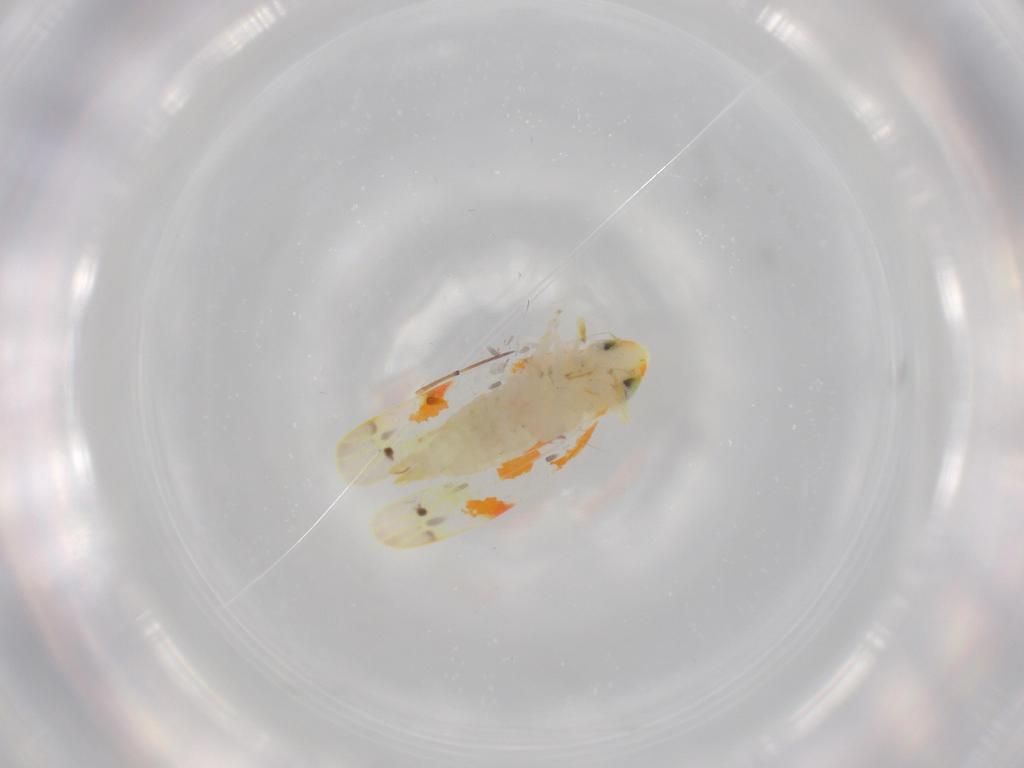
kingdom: Animalia
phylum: Arthropoda
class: Insecta
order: Hemiptera
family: Cicadellidae
